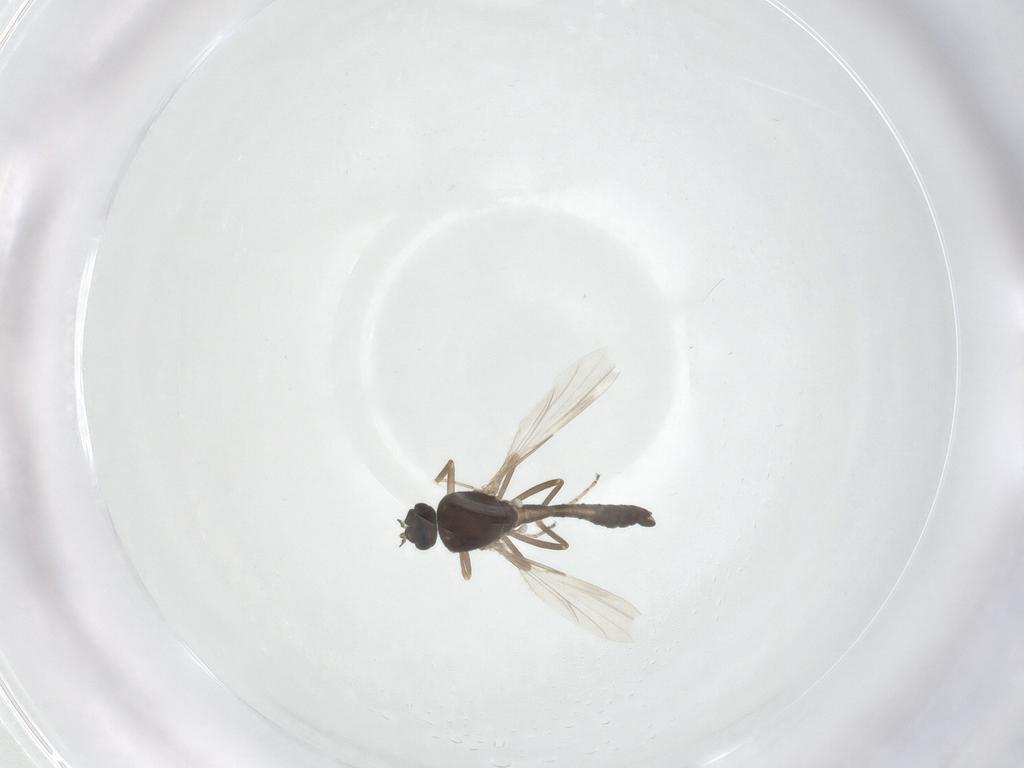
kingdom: Animalia
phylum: Arthropoda
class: Insecta
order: Diptera
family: Ceratopogonidae
